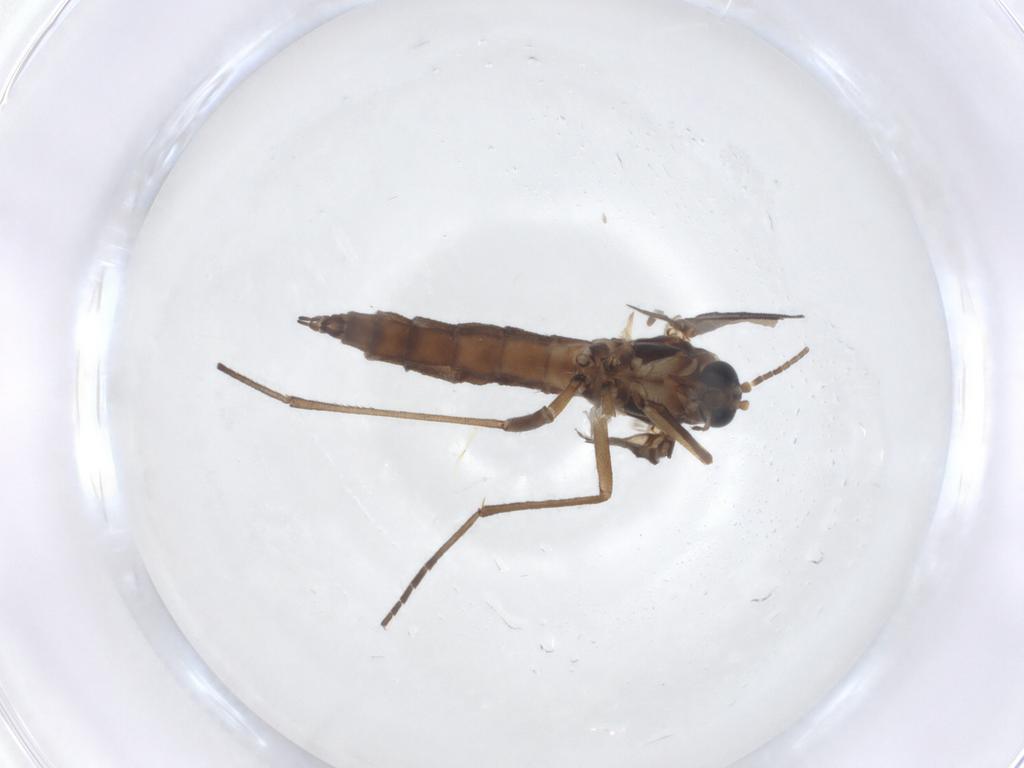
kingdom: Animalia
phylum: Arthropoda
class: Insecta
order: Diptera
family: Sciaridae
